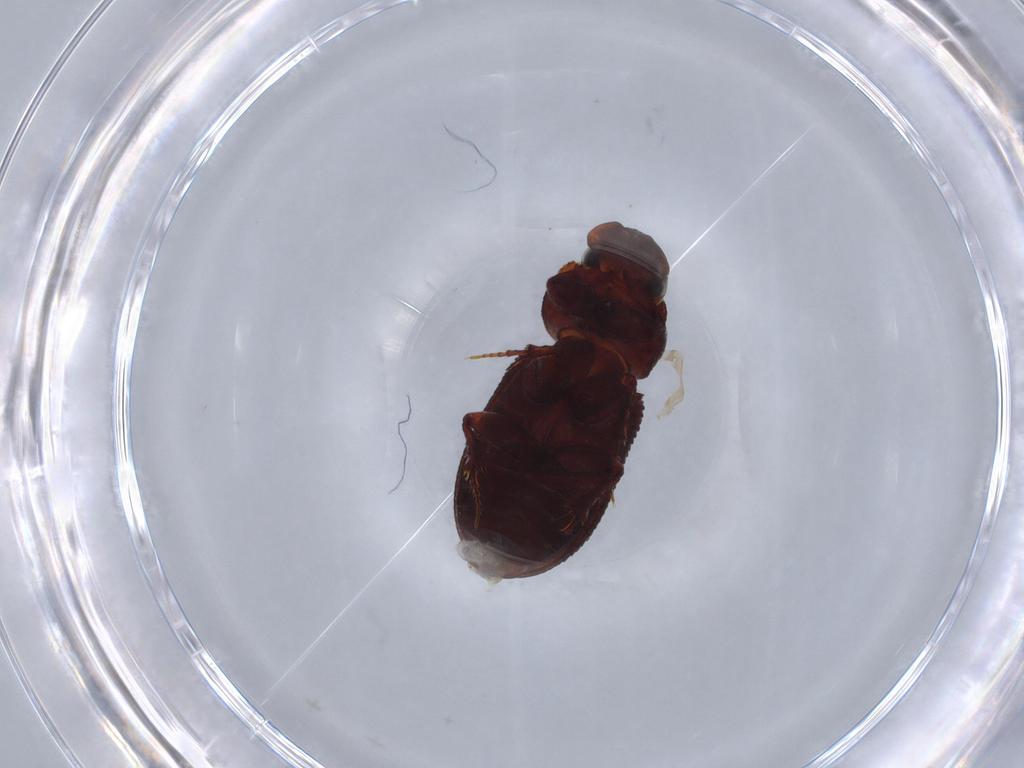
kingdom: Animalia
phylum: Arthropoda
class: Insecta
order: Coleoptera
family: Scarabaeidae
